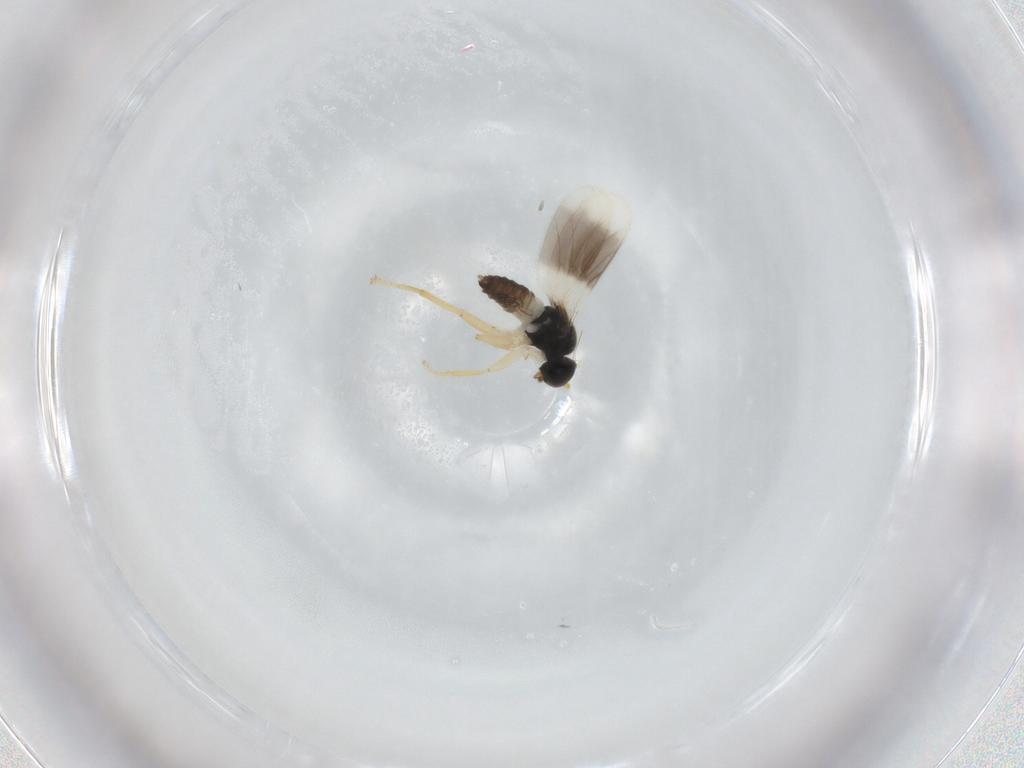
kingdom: Animalia
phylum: Arthropoda
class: Insecta
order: Diptera
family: Hybotidae
